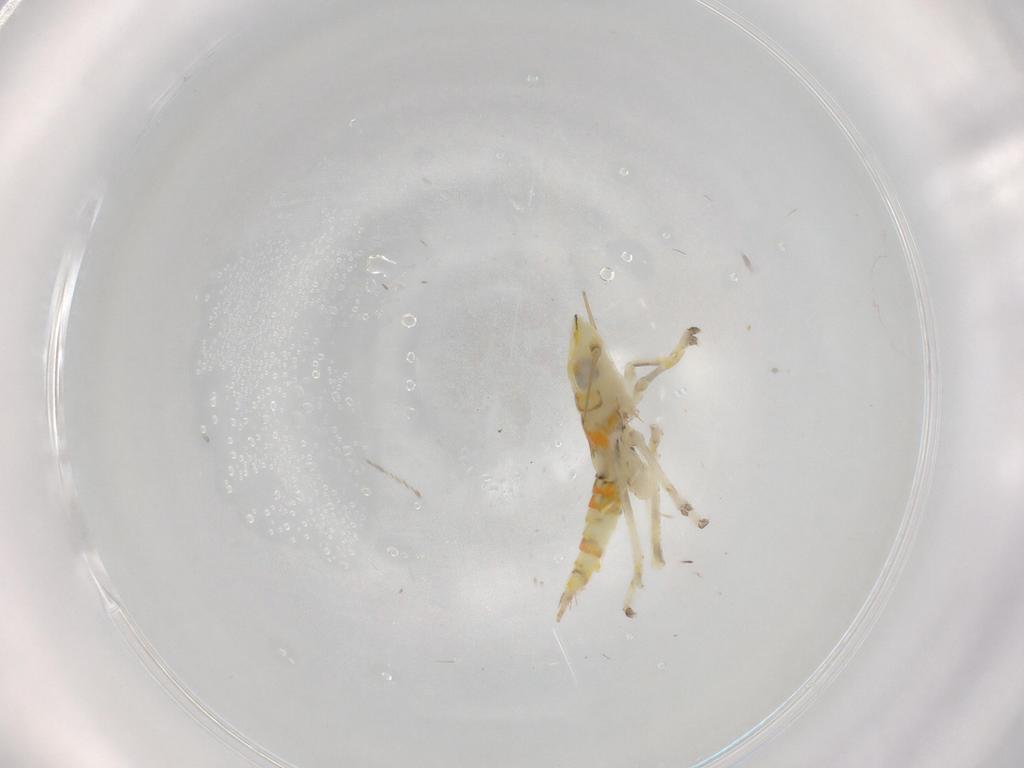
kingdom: Animalia
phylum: Arthropoda
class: Insecta
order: Hemiptera
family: Cicadellidae
